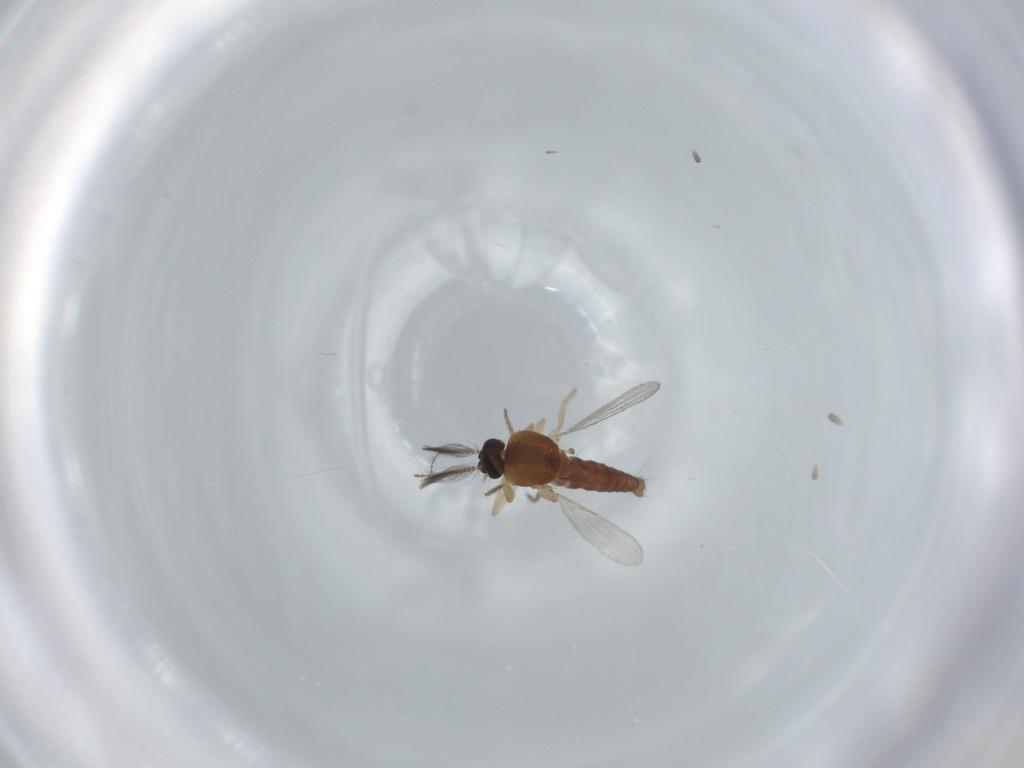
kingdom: Animalia
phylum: Arthropoda
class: Insecta
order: Diptera
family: Ceratopogonidae
